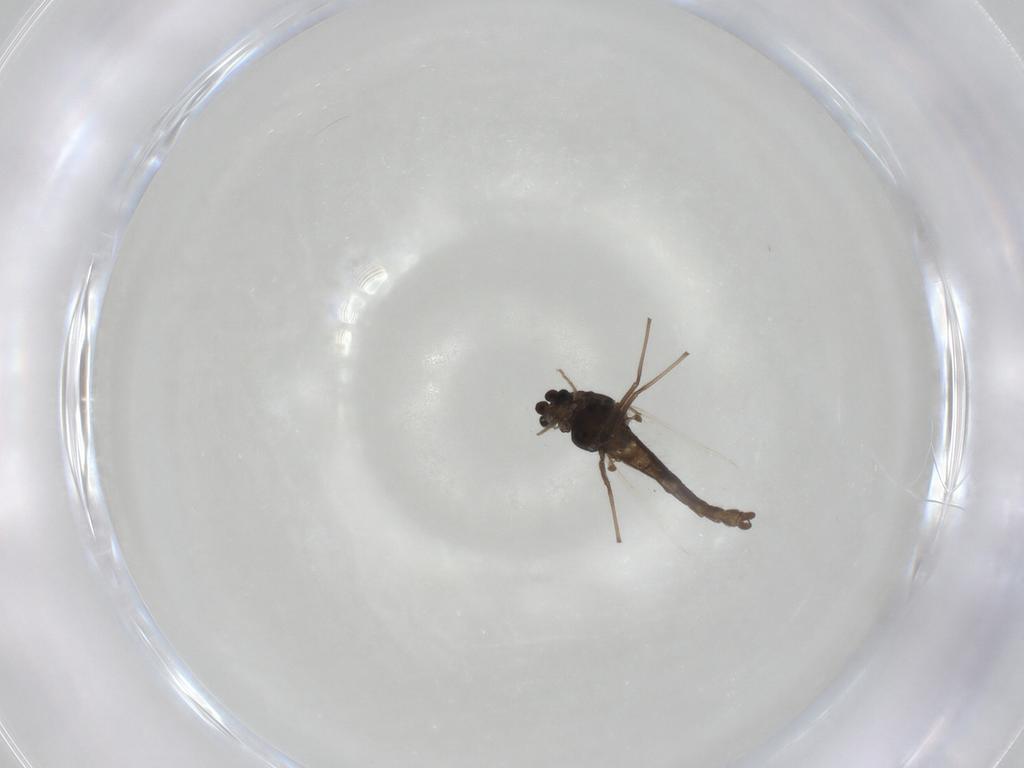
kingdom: Animalia
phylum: Arthropoda
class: Insecta
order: Diptera
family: Chironomidae
